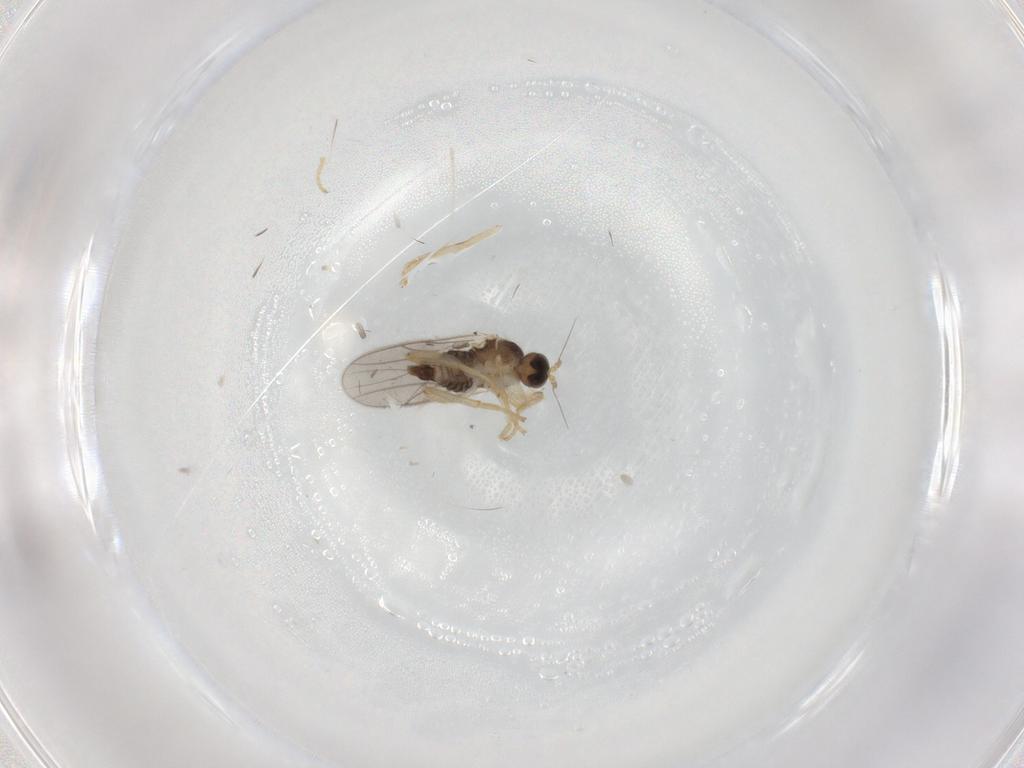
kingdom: Animalia
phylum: Arthropoda
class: Insecta
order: Diptera
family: Hybotidae
